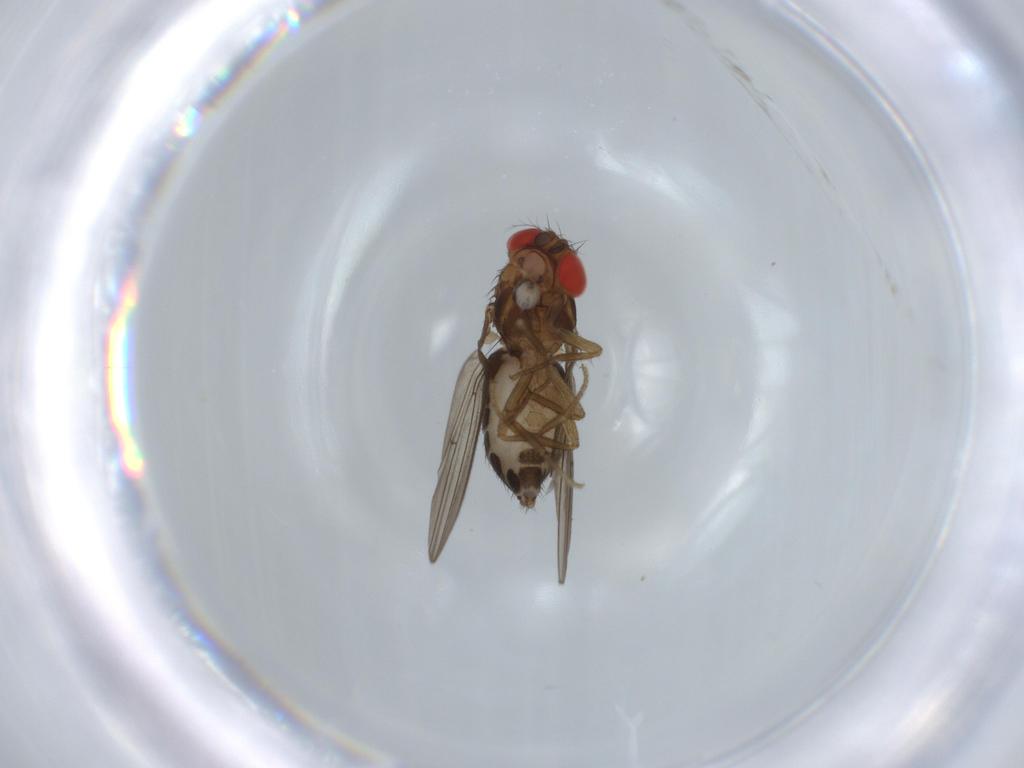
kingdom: Animalia
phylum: Arthropoda
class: Insecta
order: Diptera
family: Drosophilidae
